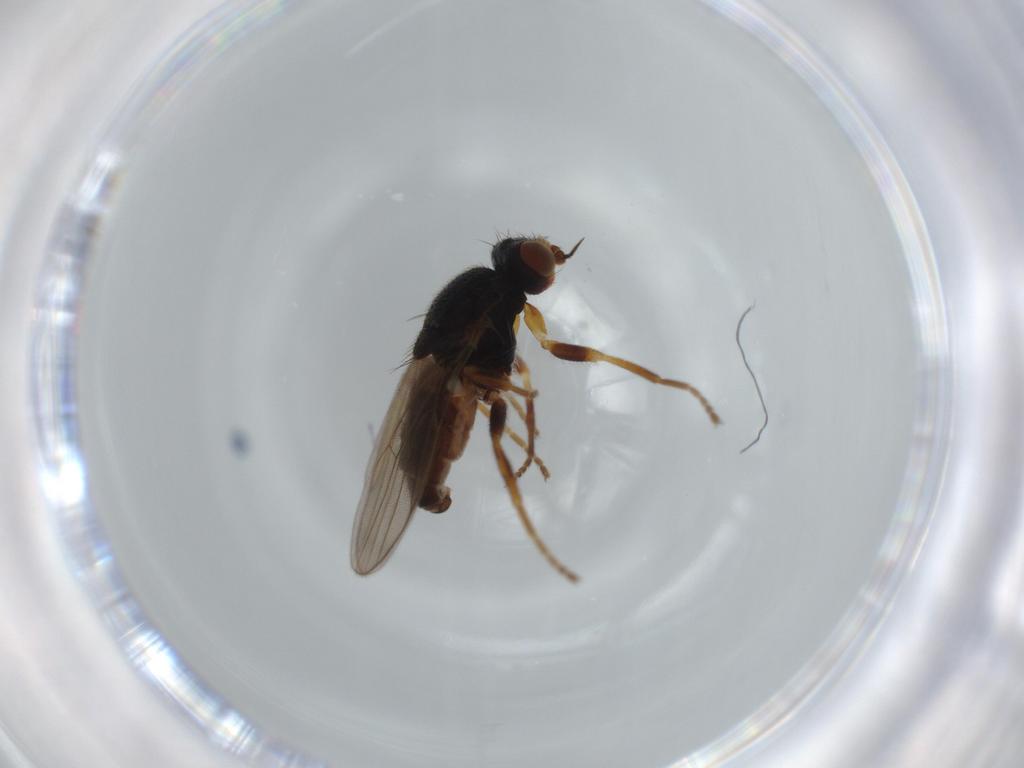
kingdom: Animalia
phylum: Arthropoda
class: Insecta
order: Diptera
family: Chloropidae
